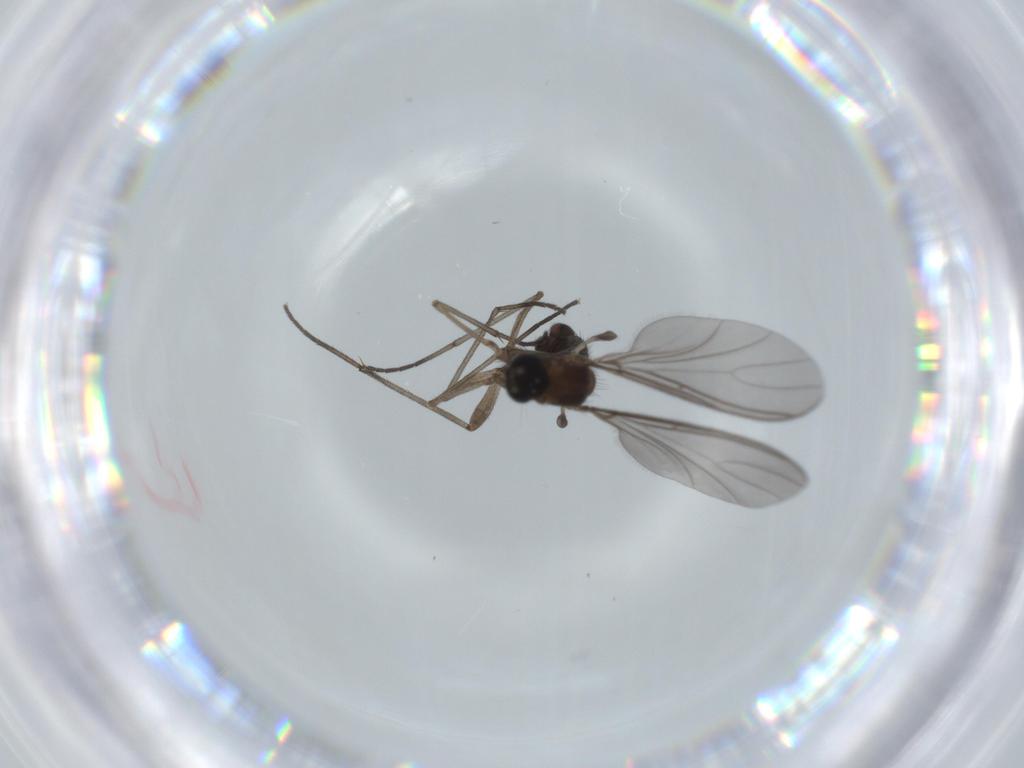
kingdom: Animalia
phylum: Arthropoda
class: Insecta
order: Diptera
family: Sciaridae
